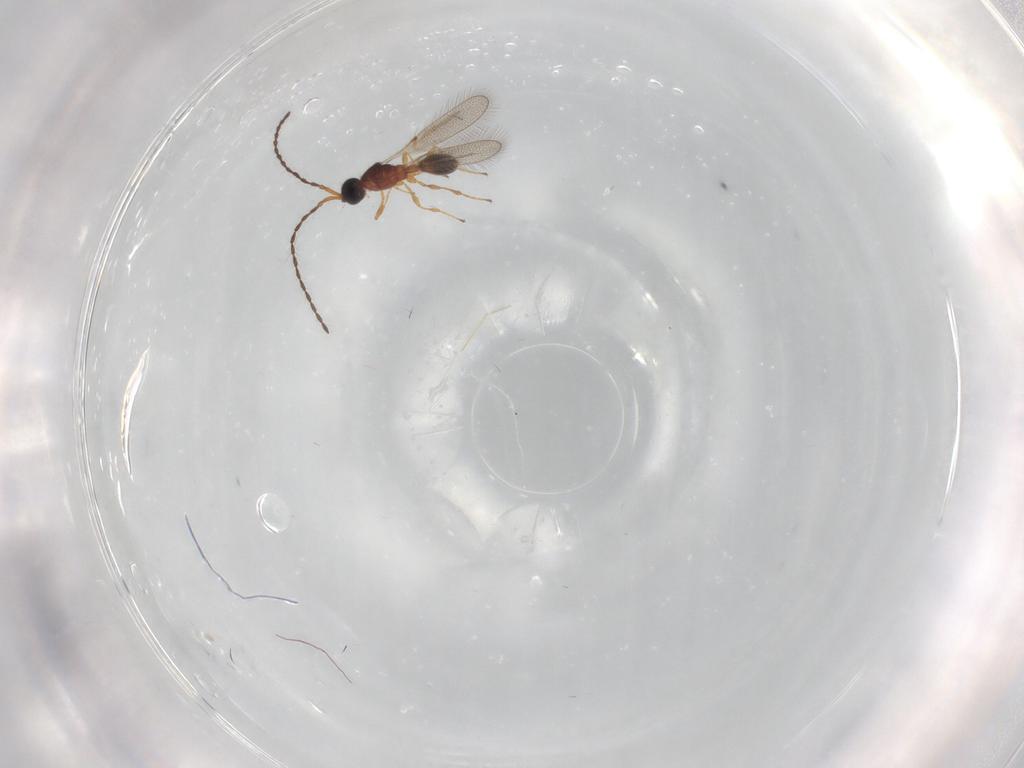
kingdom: Animalia
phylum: Arthropoda
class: Insecta
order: Hymenoptera
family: Diapriidae
